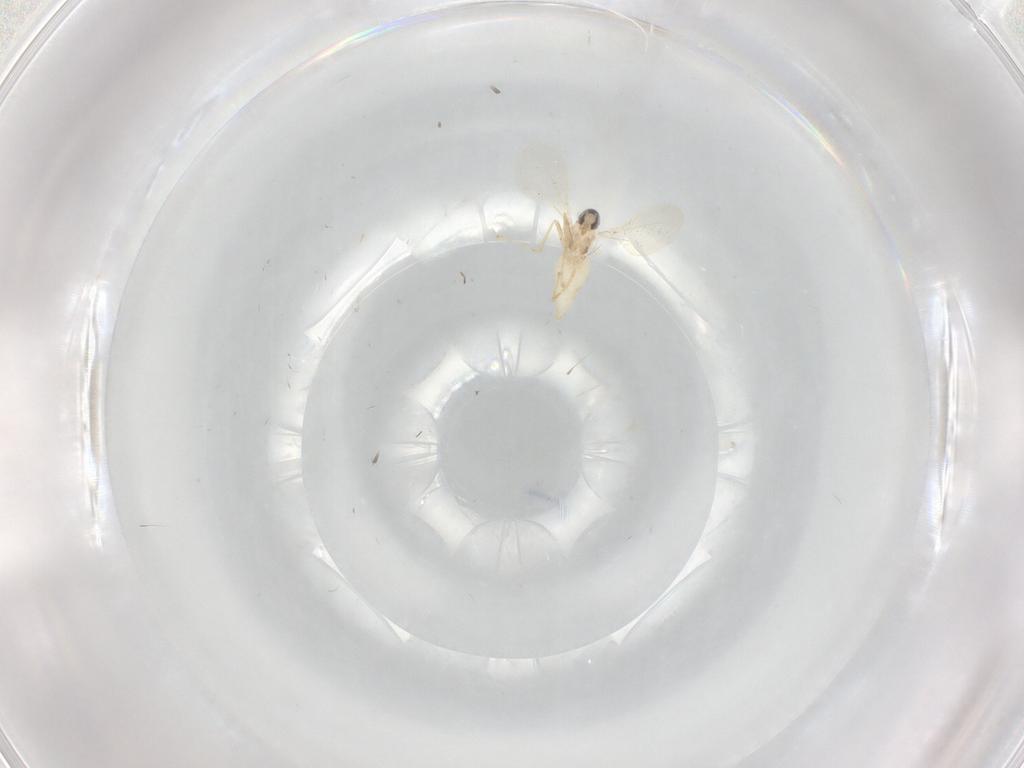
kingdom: Animalia
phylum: Arthropoda
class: Insecta
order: Diptera
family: Cecidomyiidae
